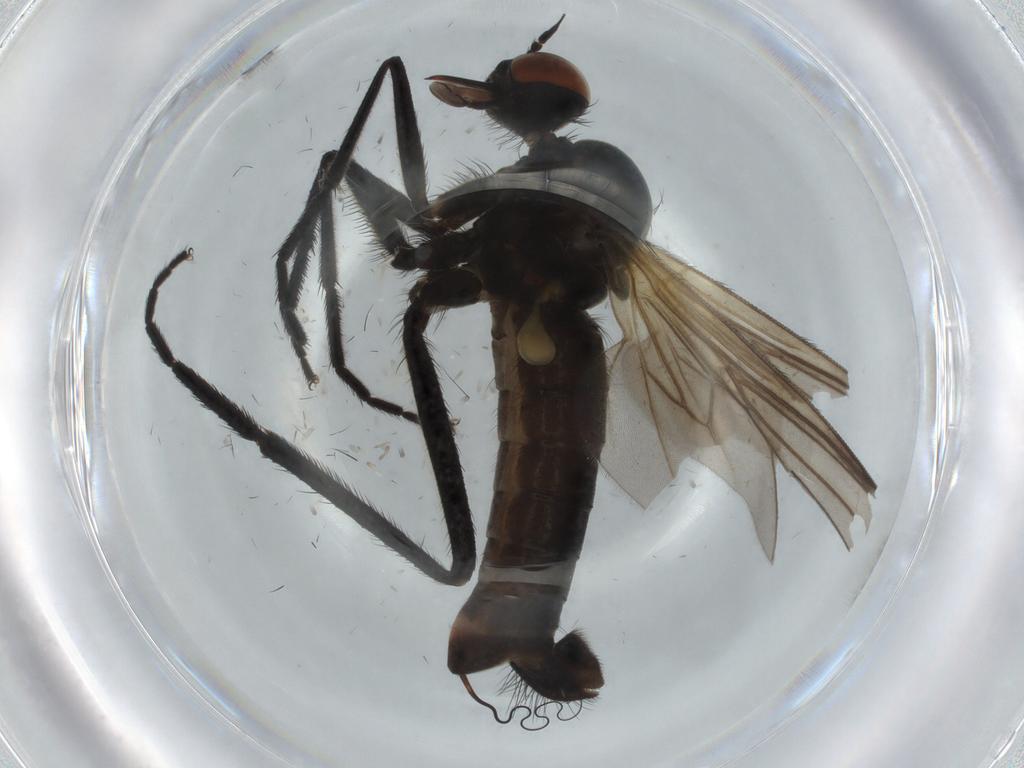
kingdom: Animalia
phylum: Arthropoda
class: Insecta
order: Diptera
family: Empididae
